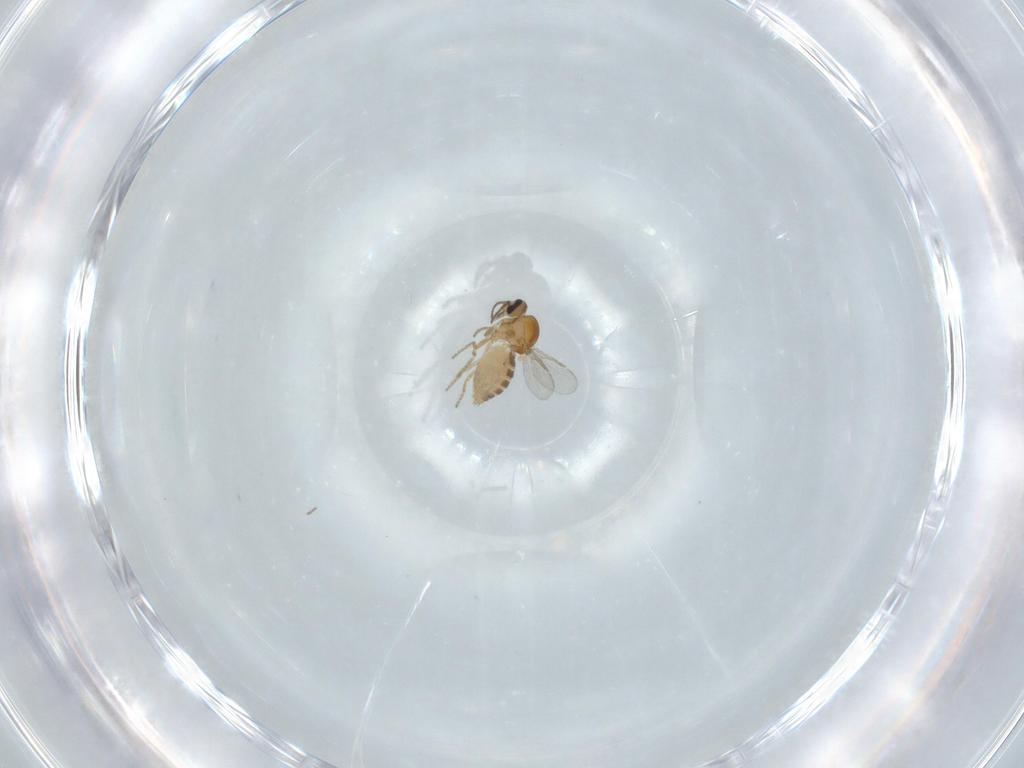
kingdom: Animalia
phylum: Arthropoda
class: Insecta
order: Diptera
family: Ceratopogonidae
